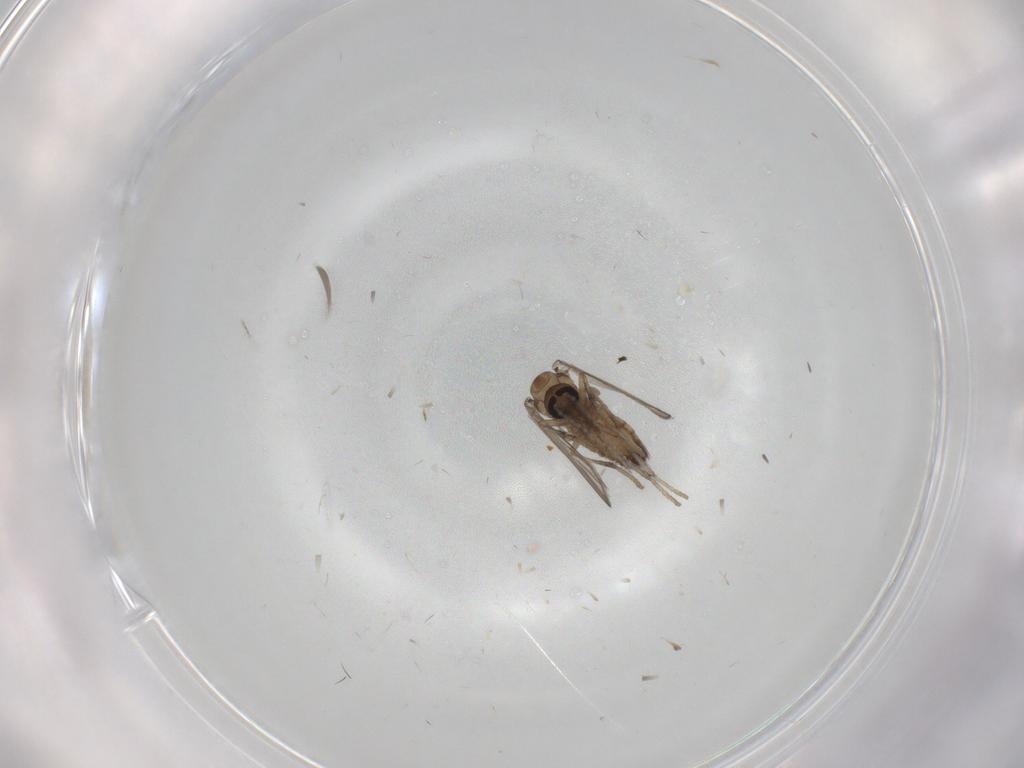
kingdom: Animalia
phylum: Arthropoda
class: Insecta
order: Diptera
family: Psychodidae
